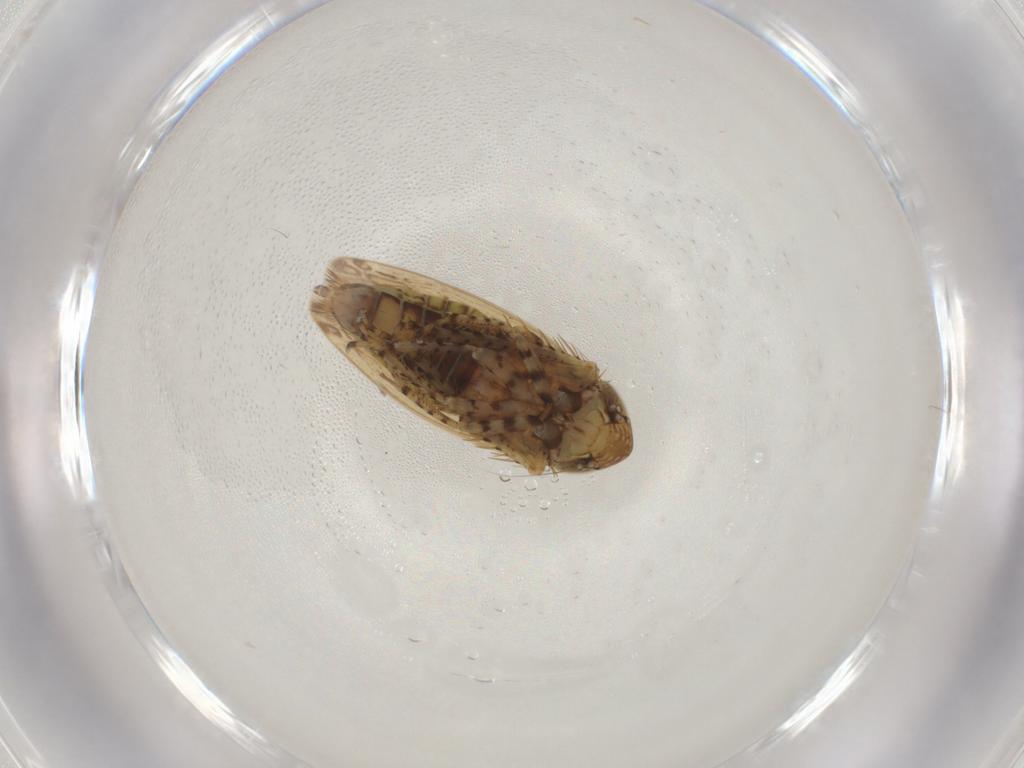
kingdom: Animalia
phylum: Arthropoda
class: Insecta
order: Hemiptera
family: Cicadellidae
